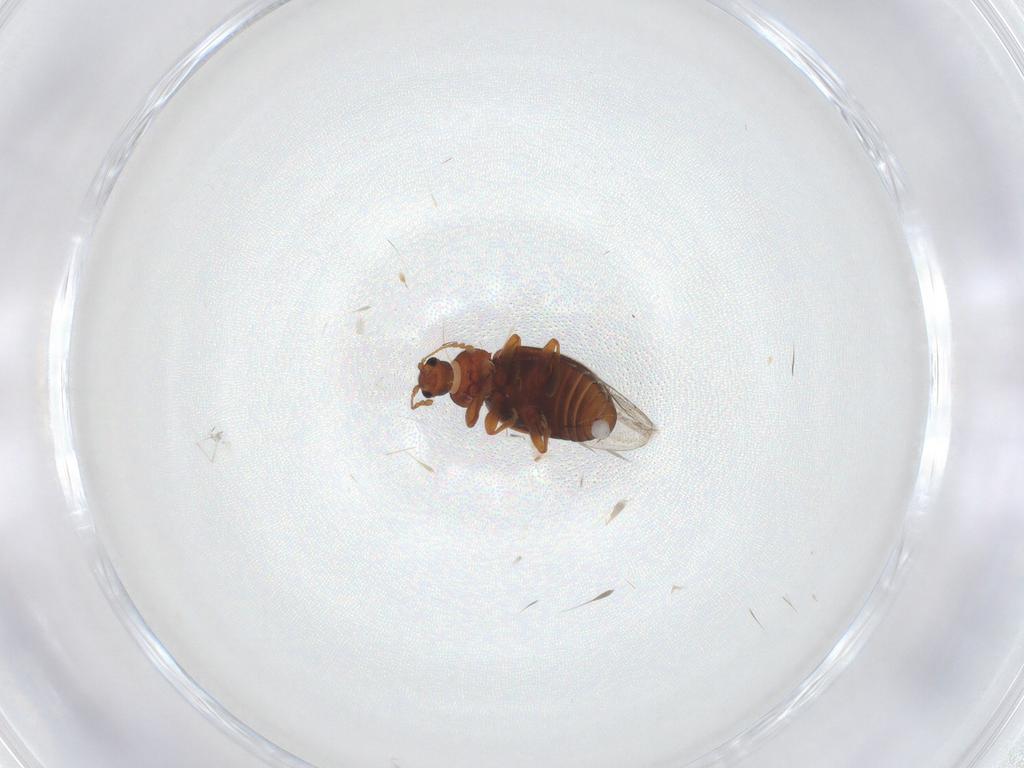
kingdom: Animalia
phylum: Arthropoda
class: Insecta
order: Coleoptera
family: Latridiidae
